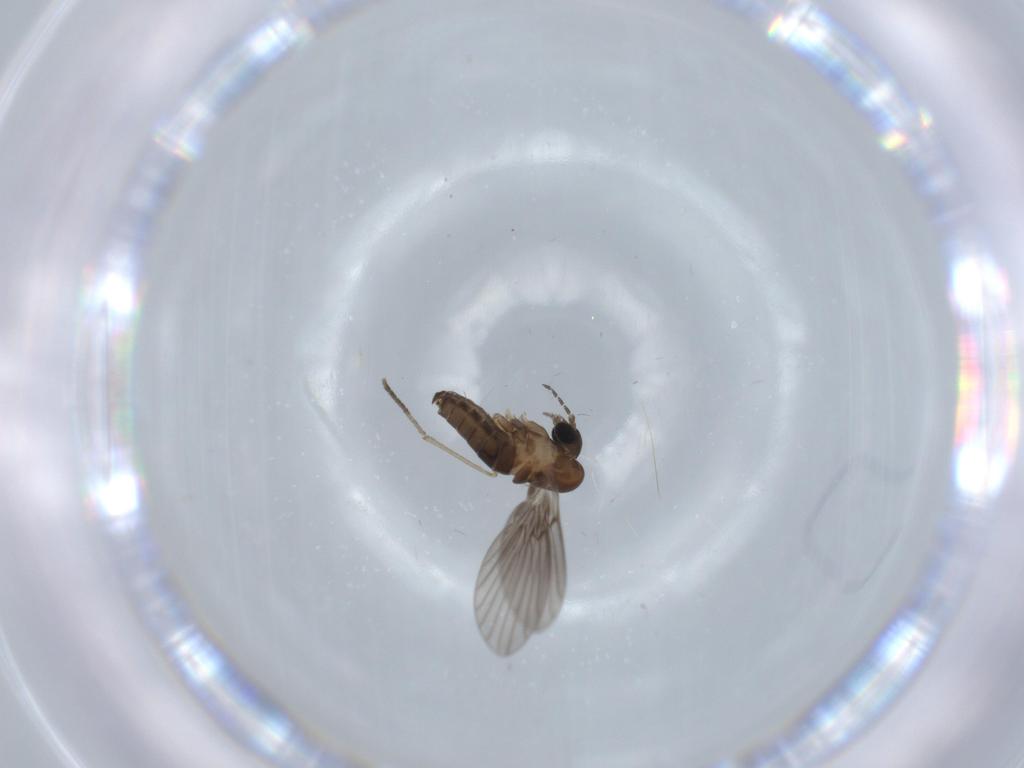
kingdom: Animalia
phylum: Arthropoda
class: Insecta
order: Diptera
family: Psychodidae
